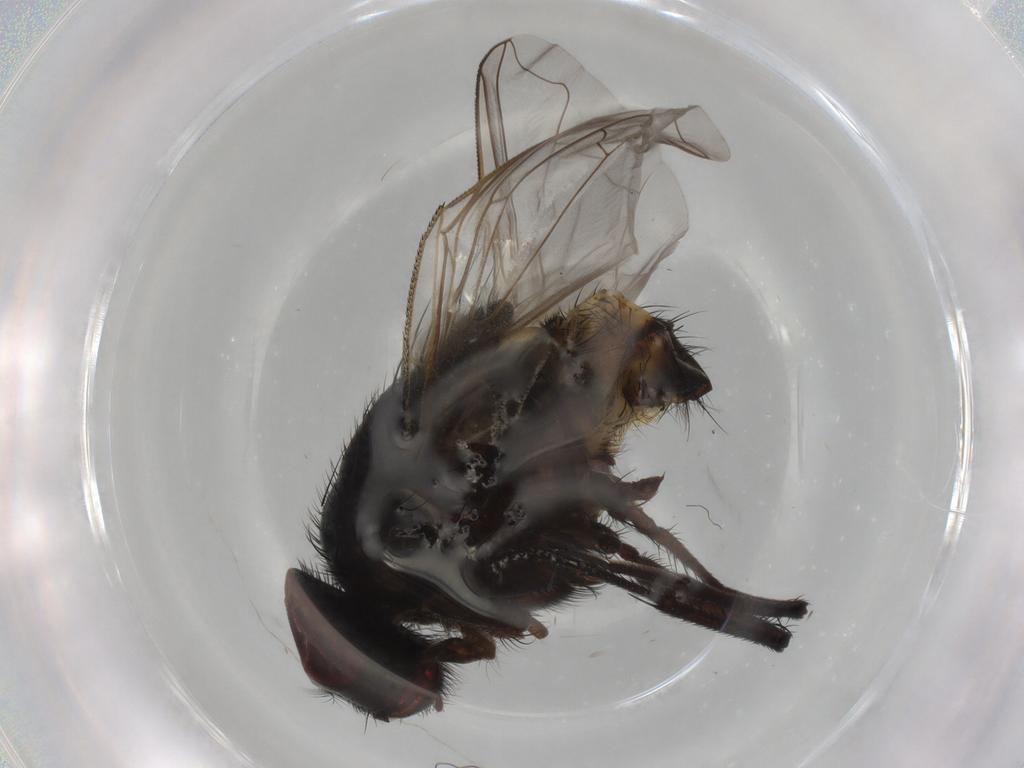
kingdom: Animalia
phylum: Arthropoda
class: Insecta
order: Diptera
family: Muscidae
